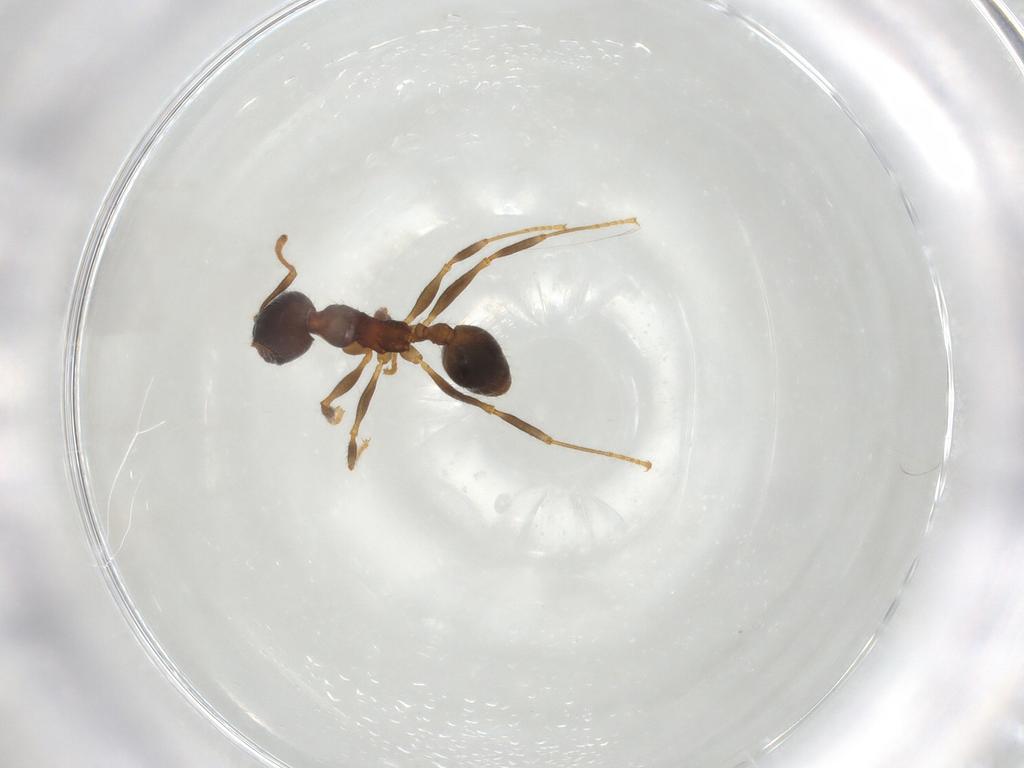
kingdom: Animalia
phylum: Arthropoda
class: Insecta
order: Hymenoptera
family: Formicidae
